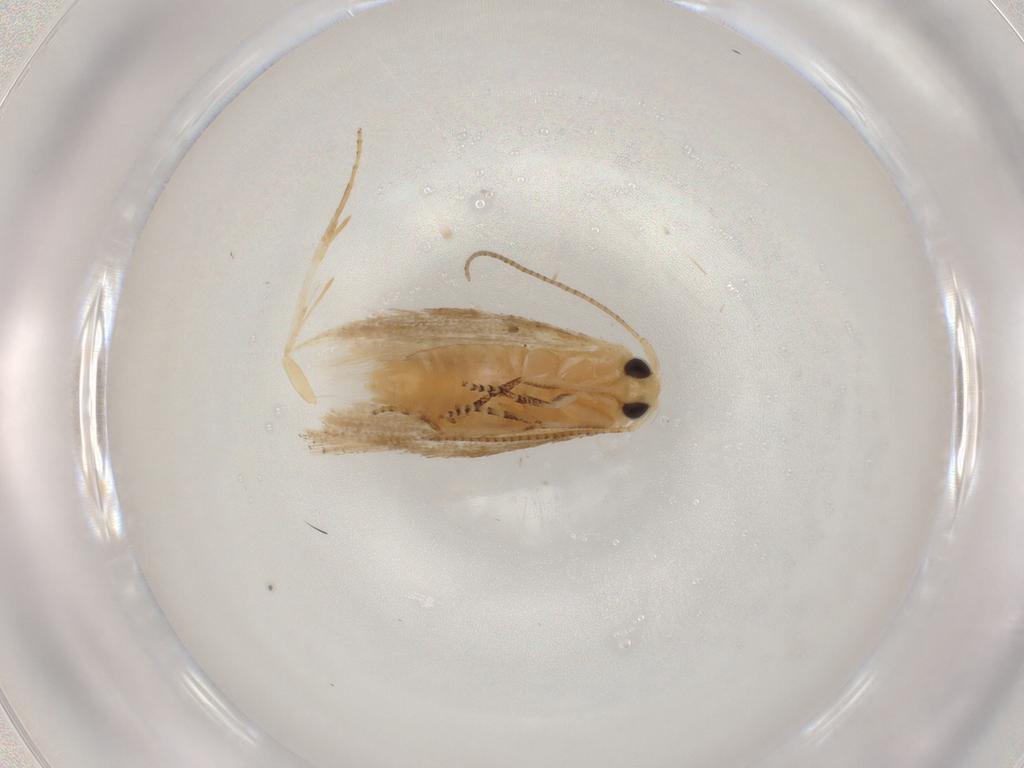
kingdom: Animalia
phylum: Arthropoda
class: Insecta
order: Lepidoptera
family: Bucculatricidae
